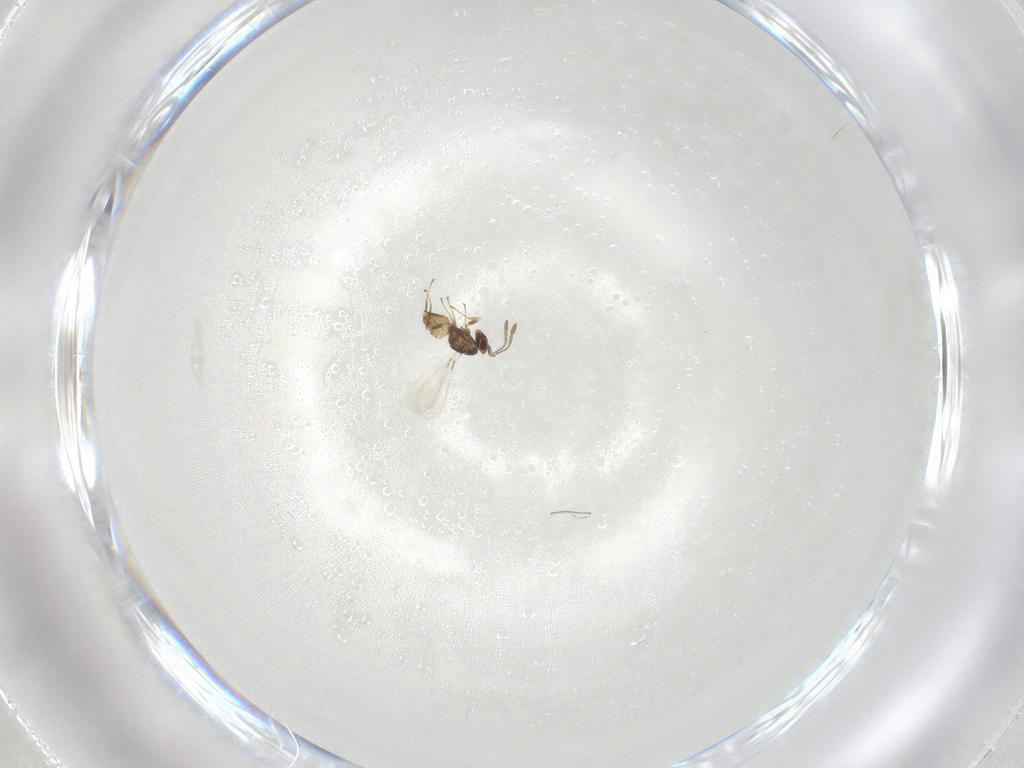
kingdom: Animalia
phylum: Arthropoda
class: Insecta
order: Hymenoptera
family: Mymaridae
